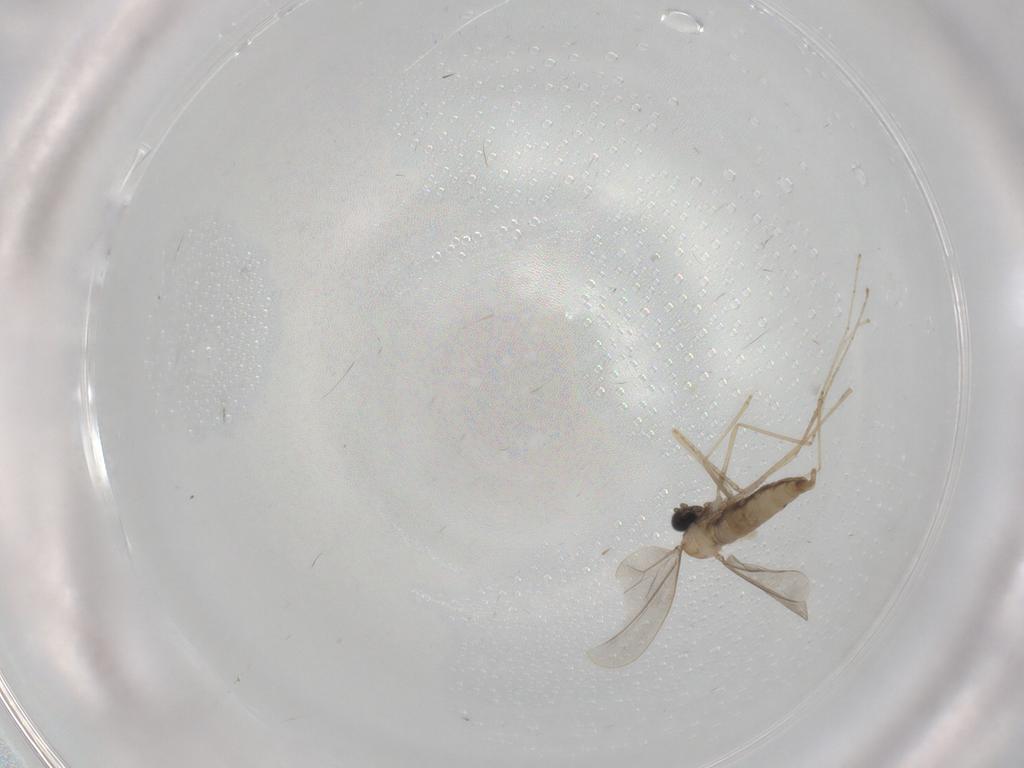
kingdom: Animalia
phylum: Arthropoda
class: Insecta
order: Diptera
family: Cecidomyiidae
